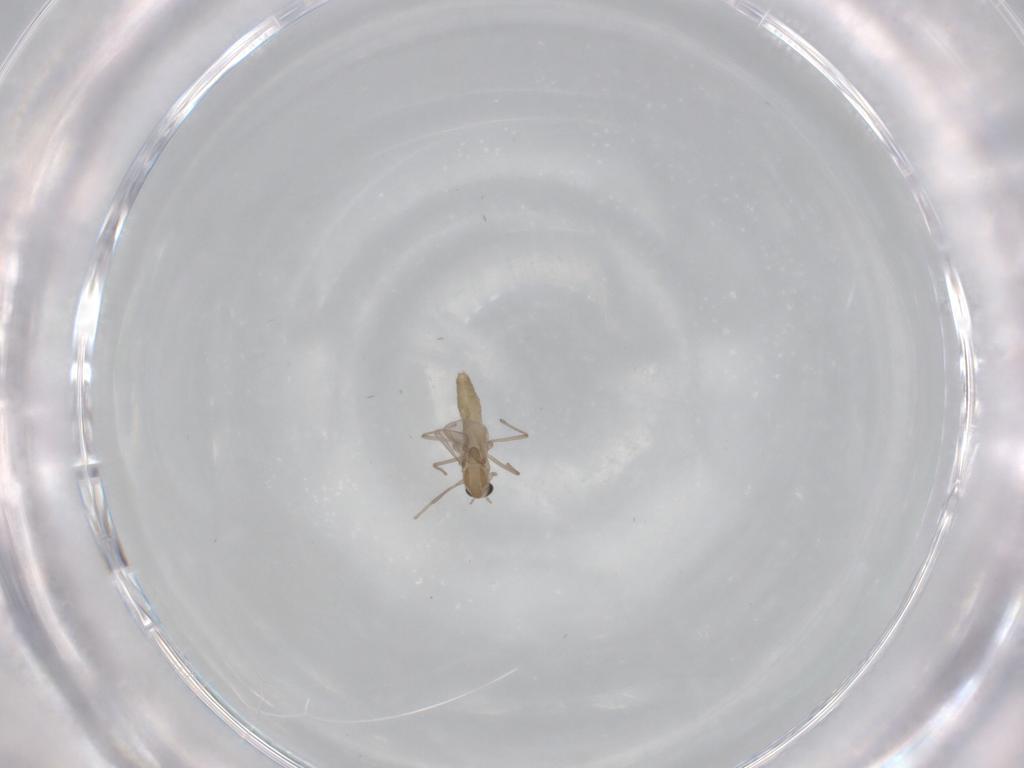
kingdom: Animalia
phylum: Arthropoda
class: Insecta
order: Diptera
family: Chironomidae
